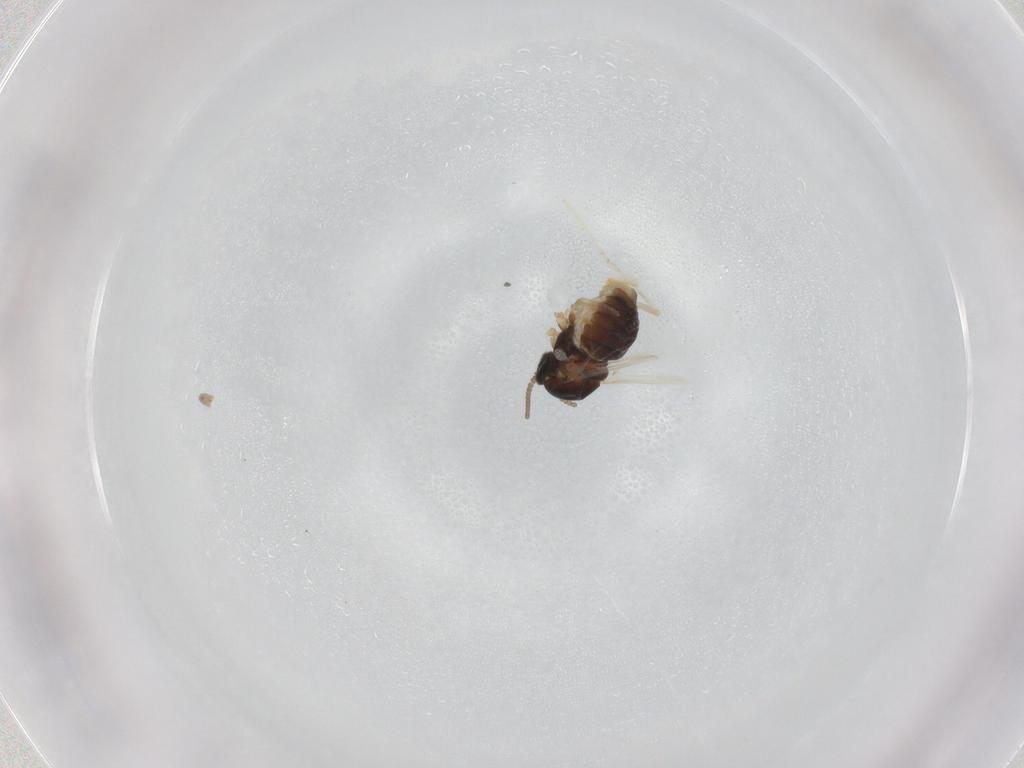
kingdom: Animalia
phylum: Arthropoda
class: Insecta
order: Diptera
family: Cecidomyiidae
